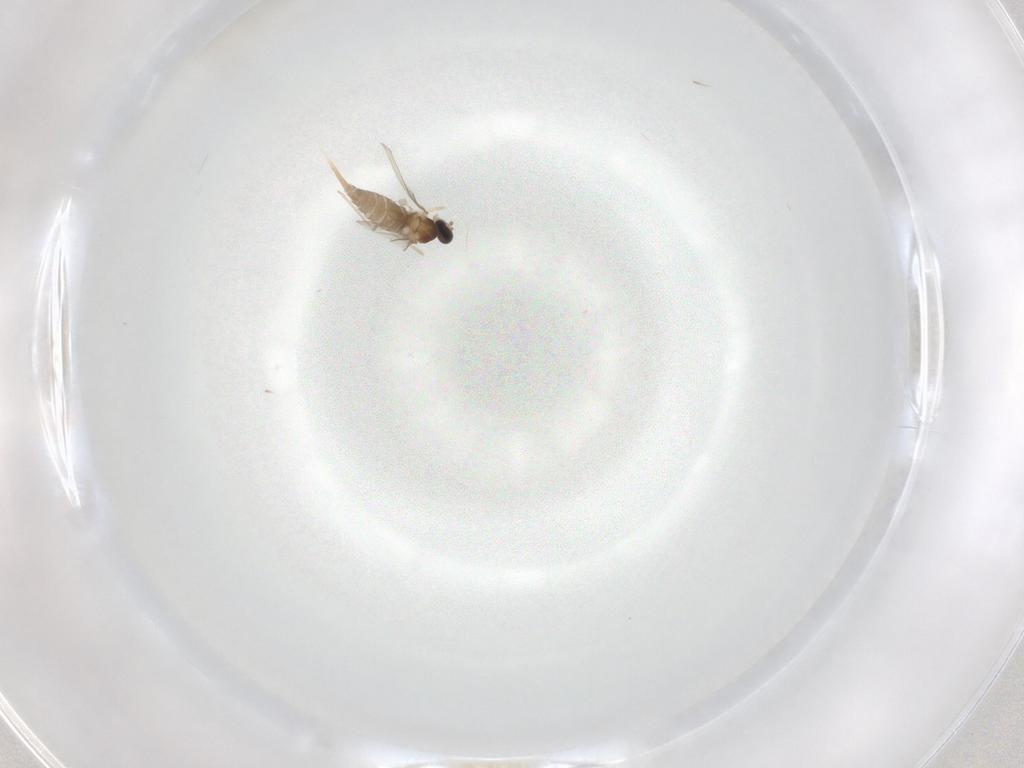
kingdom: Animalia
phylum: Arthropoda
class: Insecta
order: Diptera
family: Cecidomyiidae
